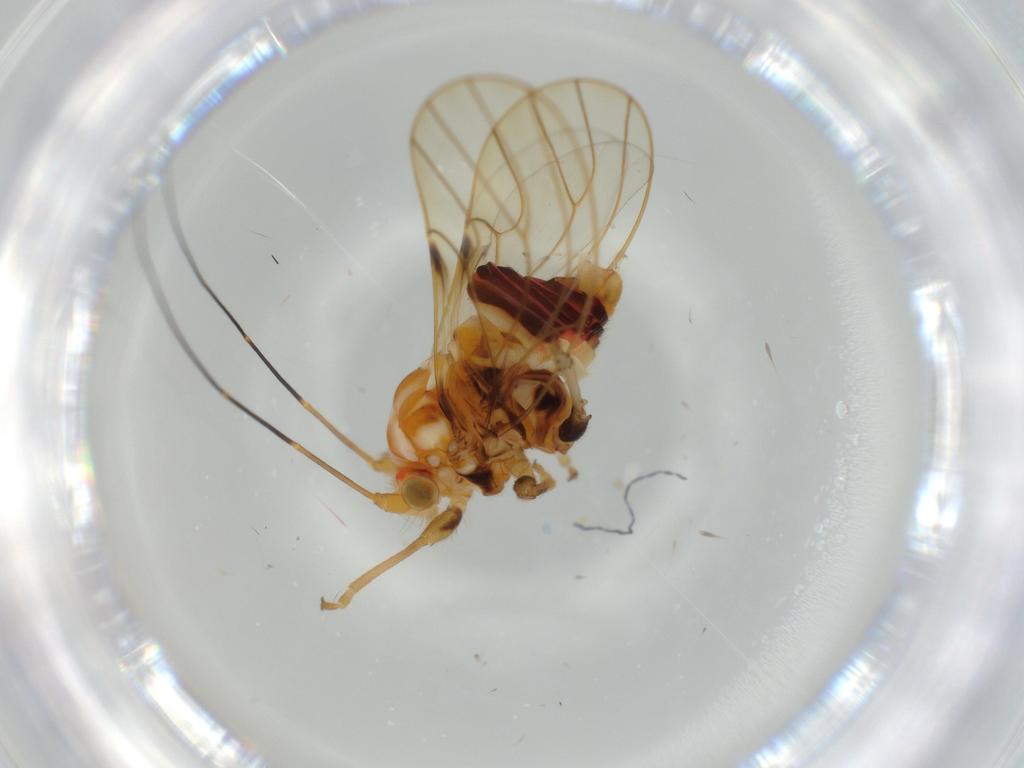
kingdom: Animalia
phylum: Arthropoda
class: Insecta
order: Hemiptera
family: Psyllidae
